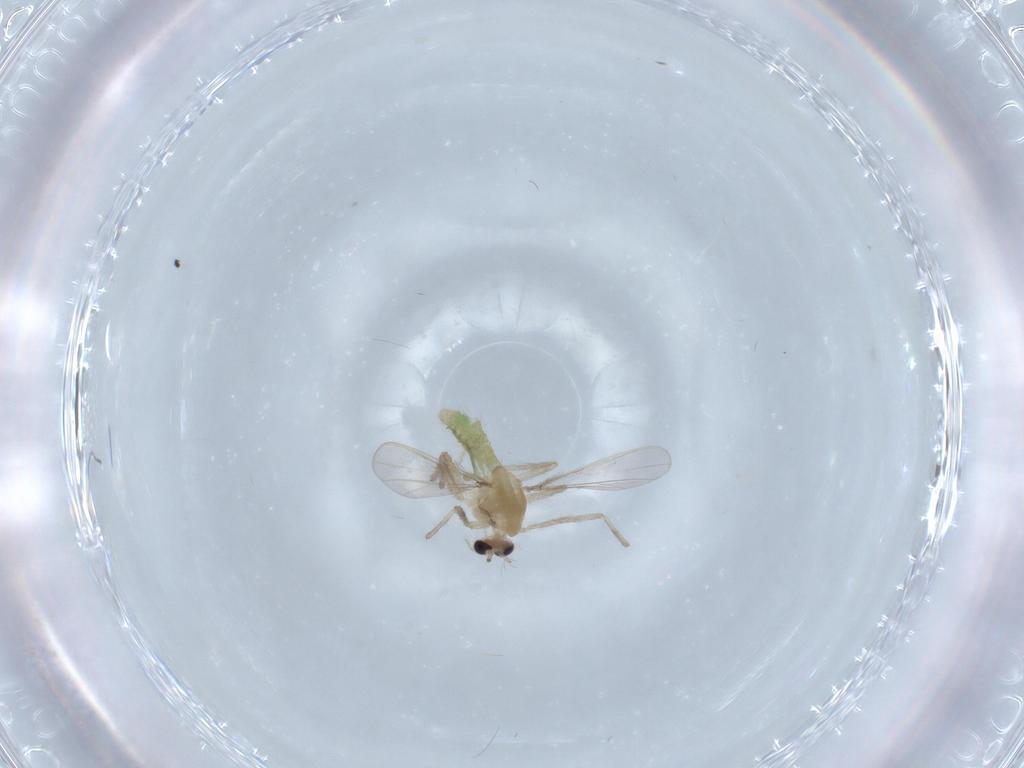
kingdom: Animalia
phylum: Arthropoda
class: Insecta
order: Diptera
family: Chironomidae
